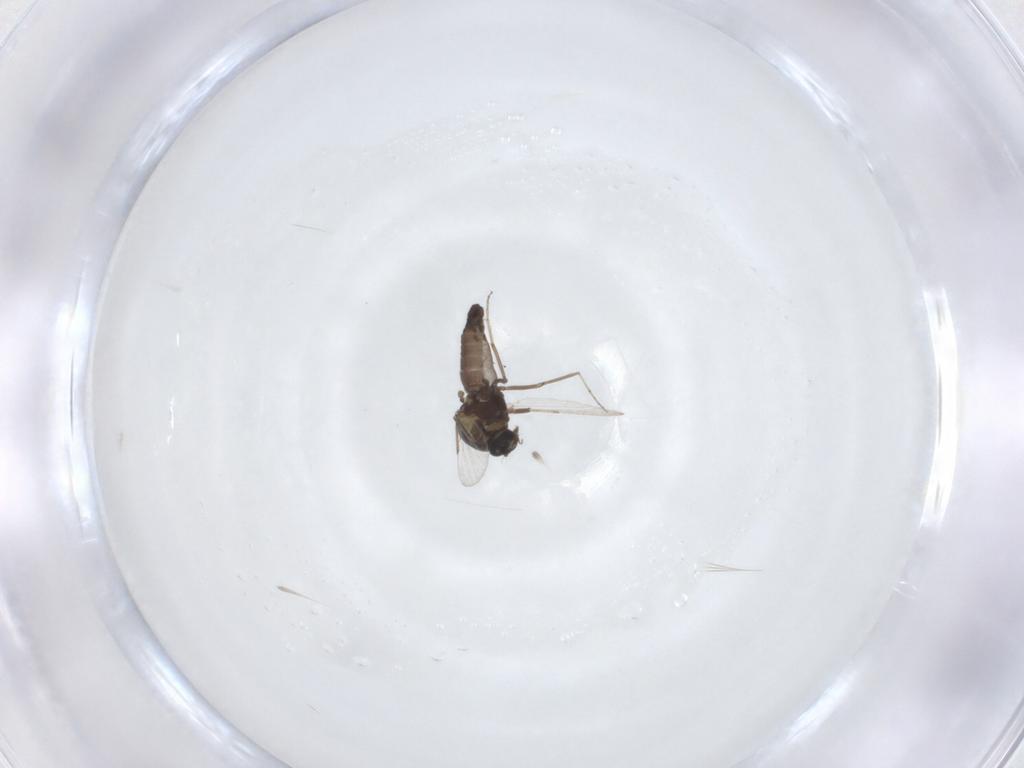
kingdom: Animalia
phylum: Arthropoda
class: Insecta
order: Diptera
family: Ceratopogonidae
